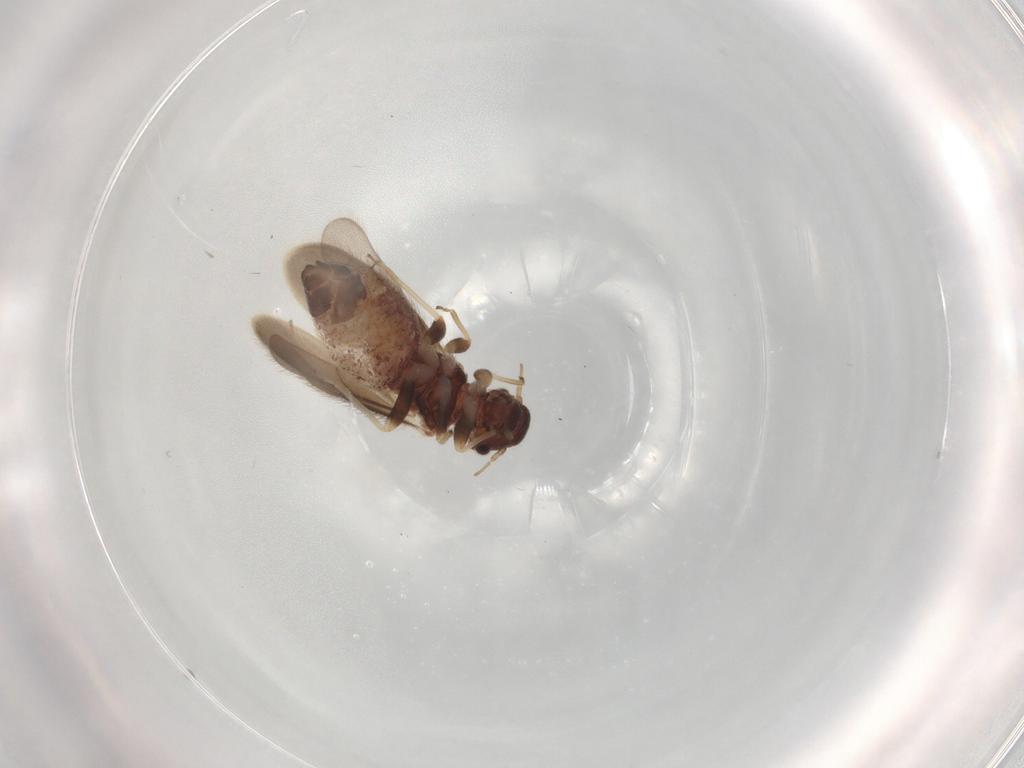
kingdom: Animalia
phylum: Arthropoda
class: Insecta
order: Psocodea
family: Archipsocidae
